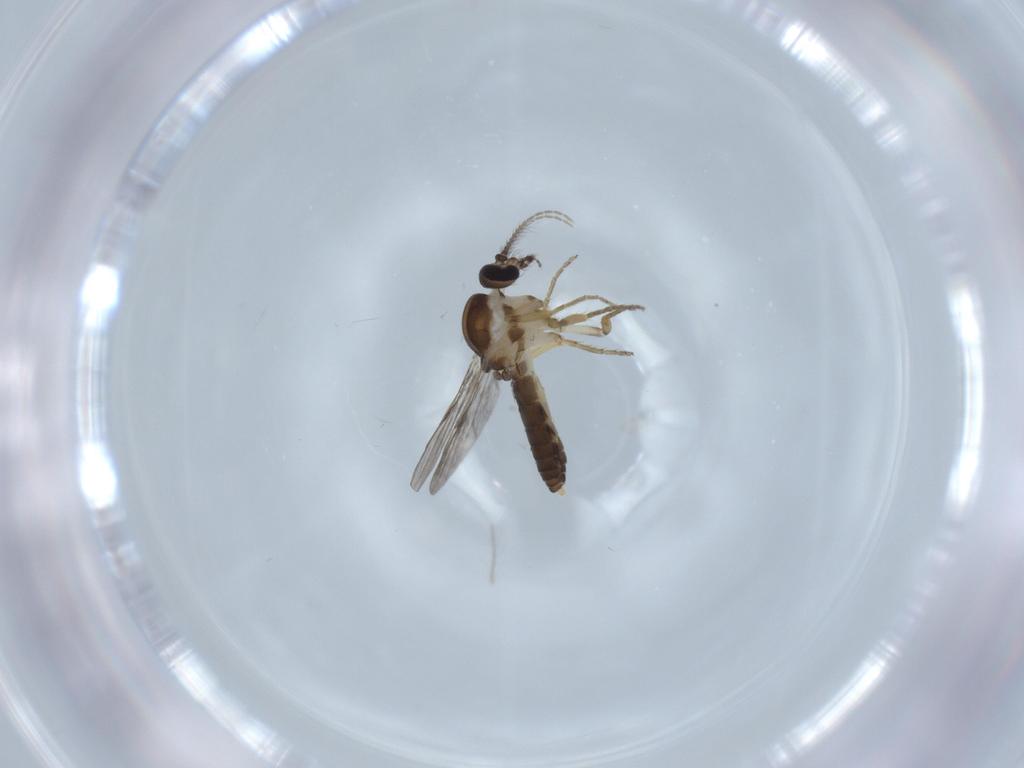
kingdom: Animalia
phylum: Arthropoda
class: Insecta
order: Diptera
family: Ceratopogonidae
